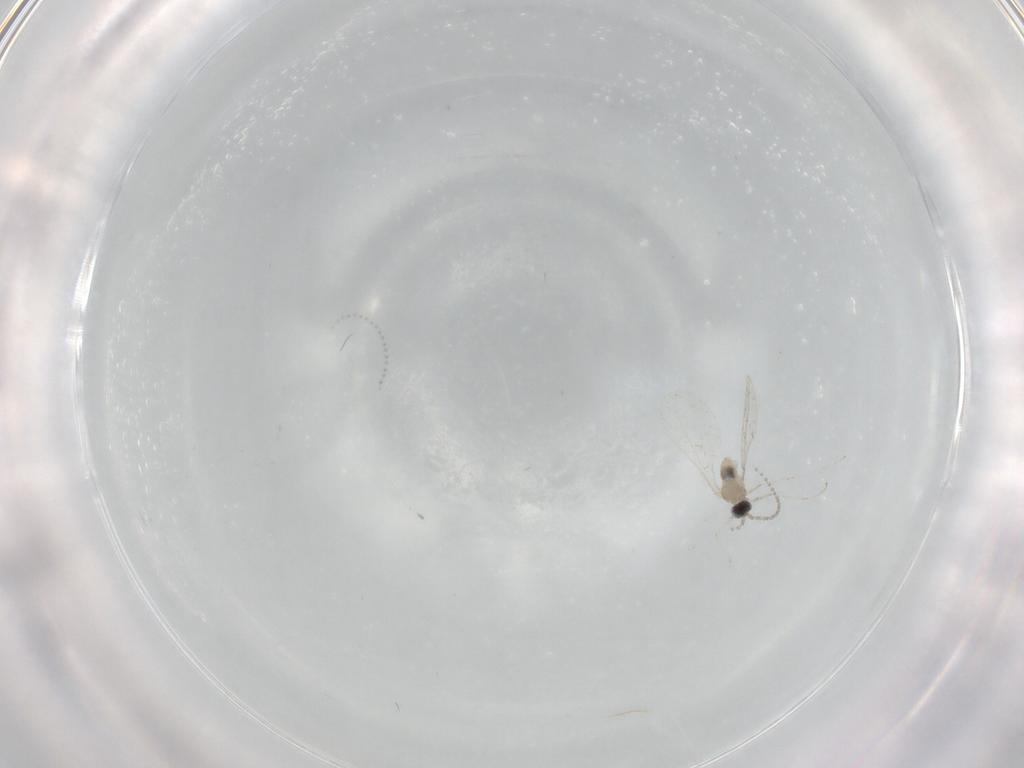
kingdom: Animalia
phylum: Arthropoda
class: Insecta
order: Diptera
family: Cecidomyiidae
